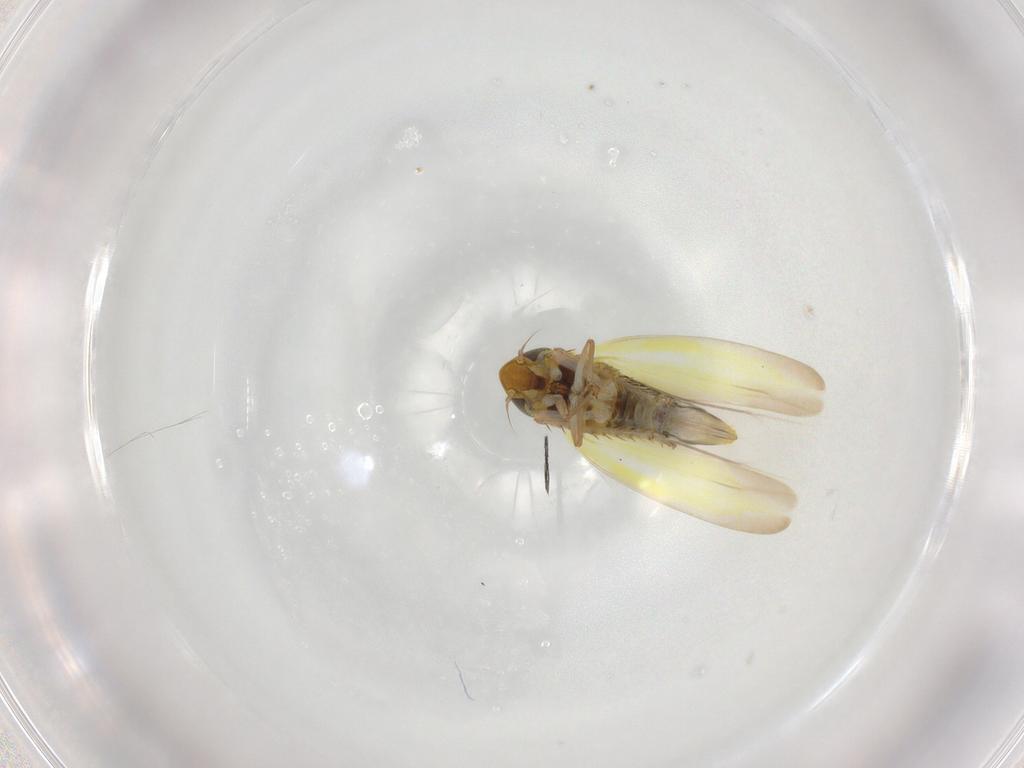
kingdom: Animalia
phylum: Arthropoda
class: Insecta
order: Hemiptera
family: Cicadellidae
